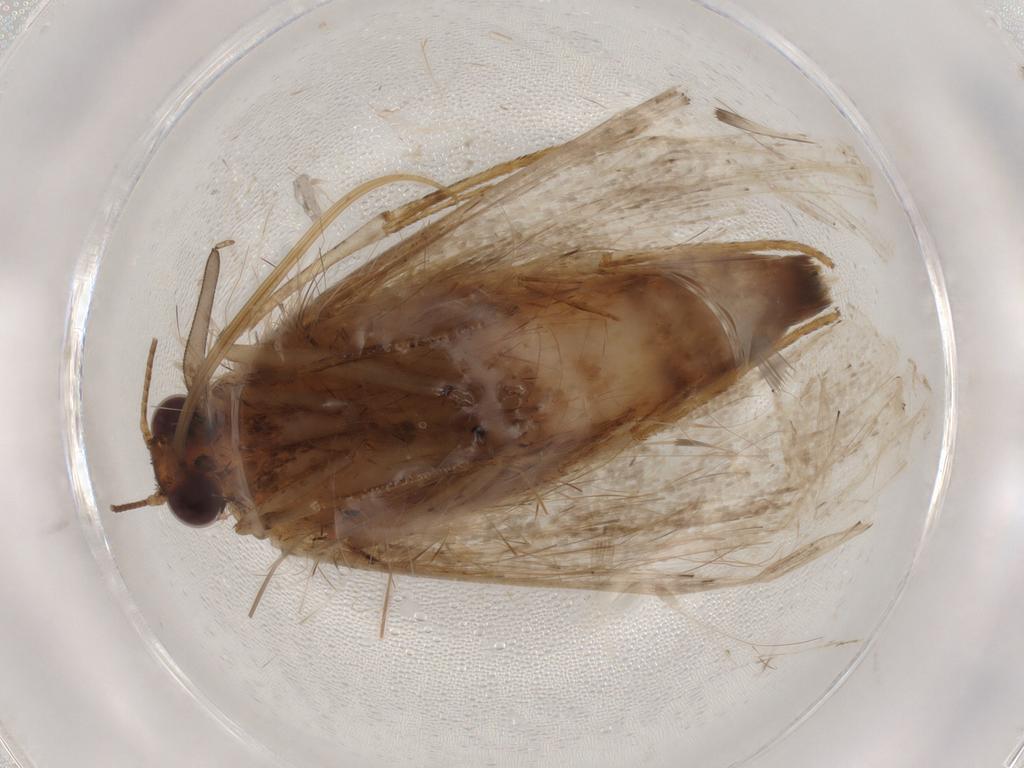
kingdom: Animalia
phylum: Arthropoda
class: Insecta
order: Lepidoptera
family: Erebidae
